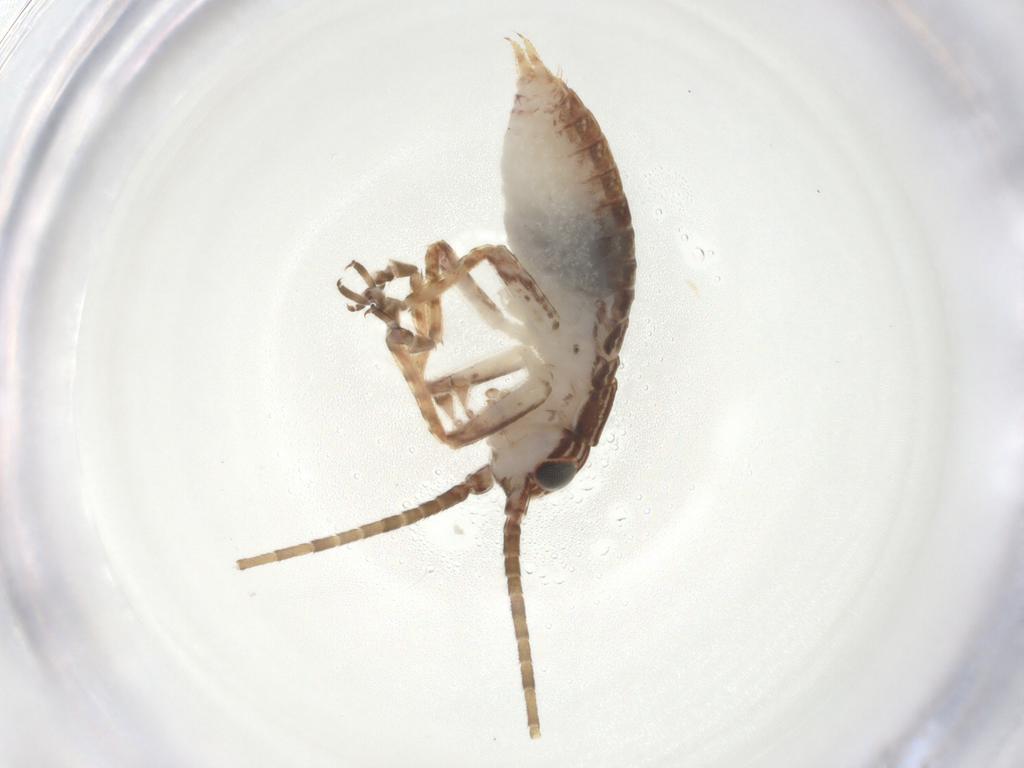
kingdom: Animalia
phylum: Arthropoda
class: Insecta
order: Orthoptera
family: Gryllidae
